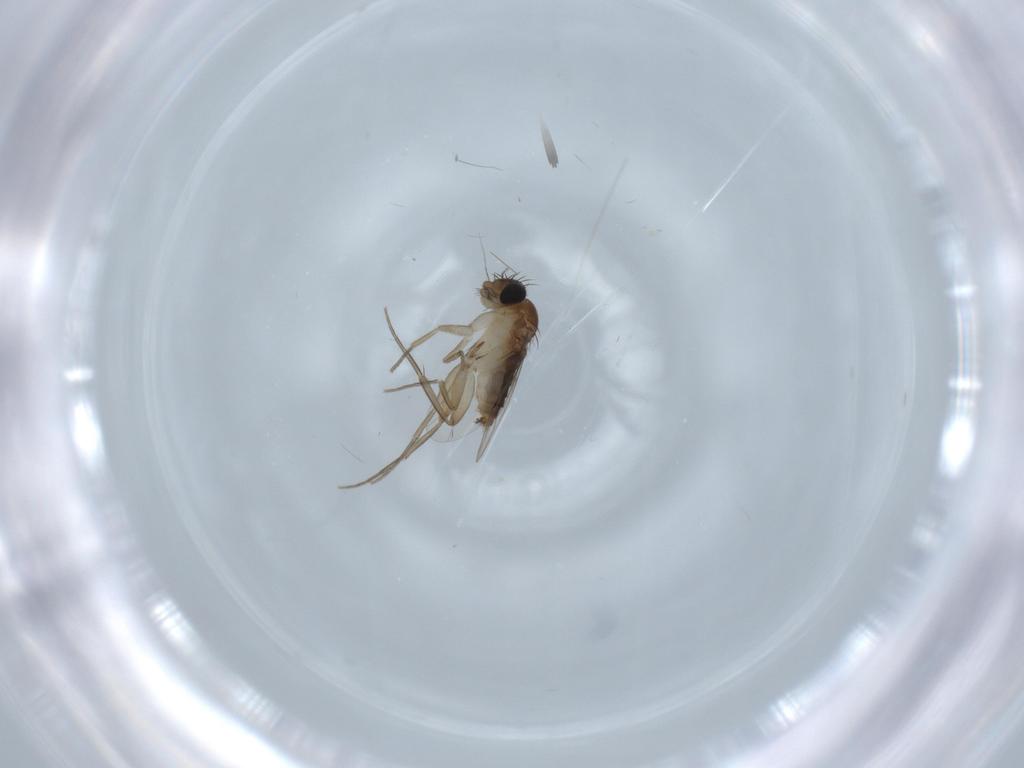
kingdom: Animalia
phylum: Arthropoda
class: Insecta
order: Diptera
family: Phoridae
